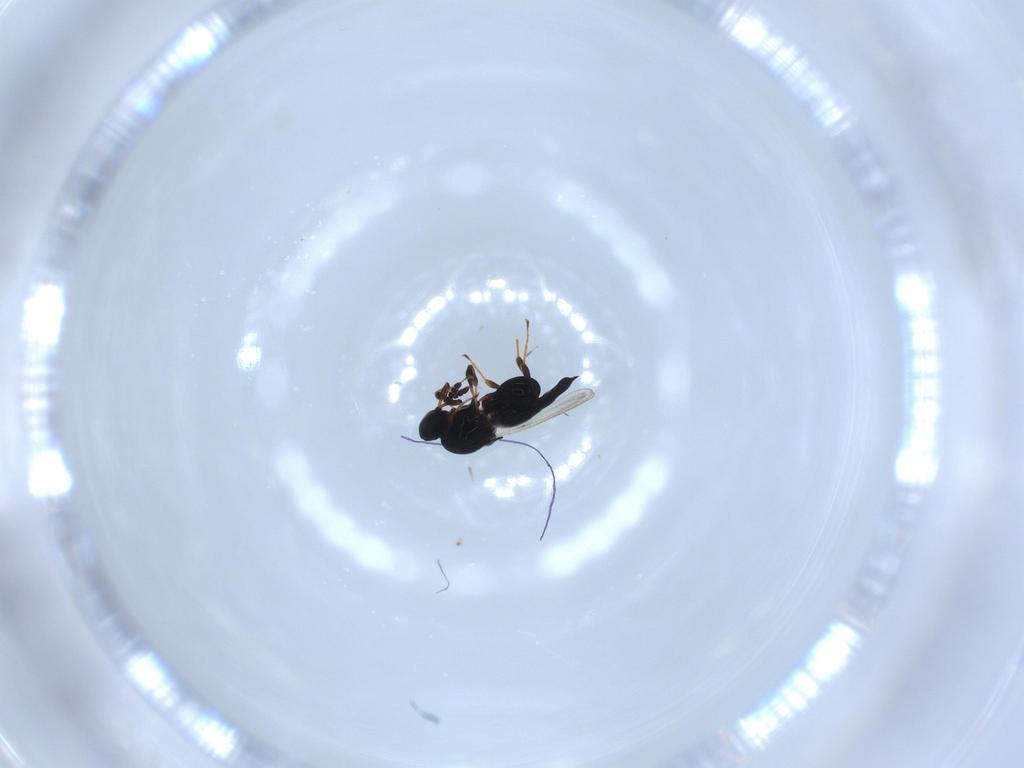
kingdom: Animalia
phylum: Arthropoda
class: Insecta
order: Hymenoptera
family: Platygastridae
